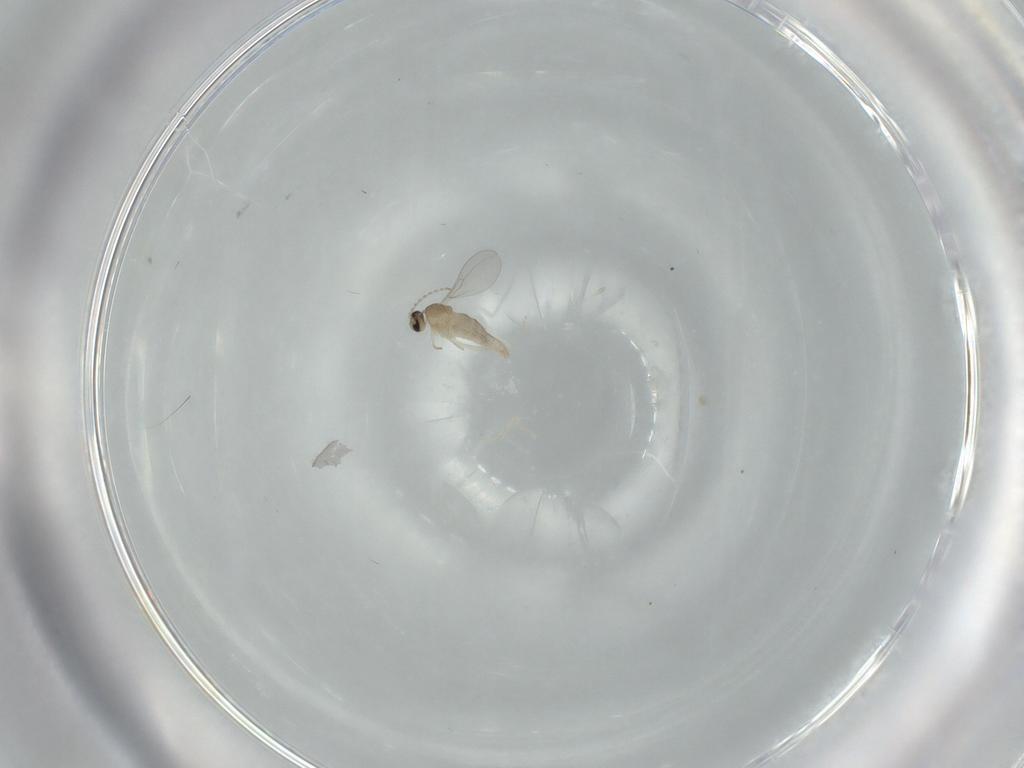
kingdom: Animalia
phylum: Arthropoda
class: Insecta
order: Diptera
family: Cecidomyiidae
